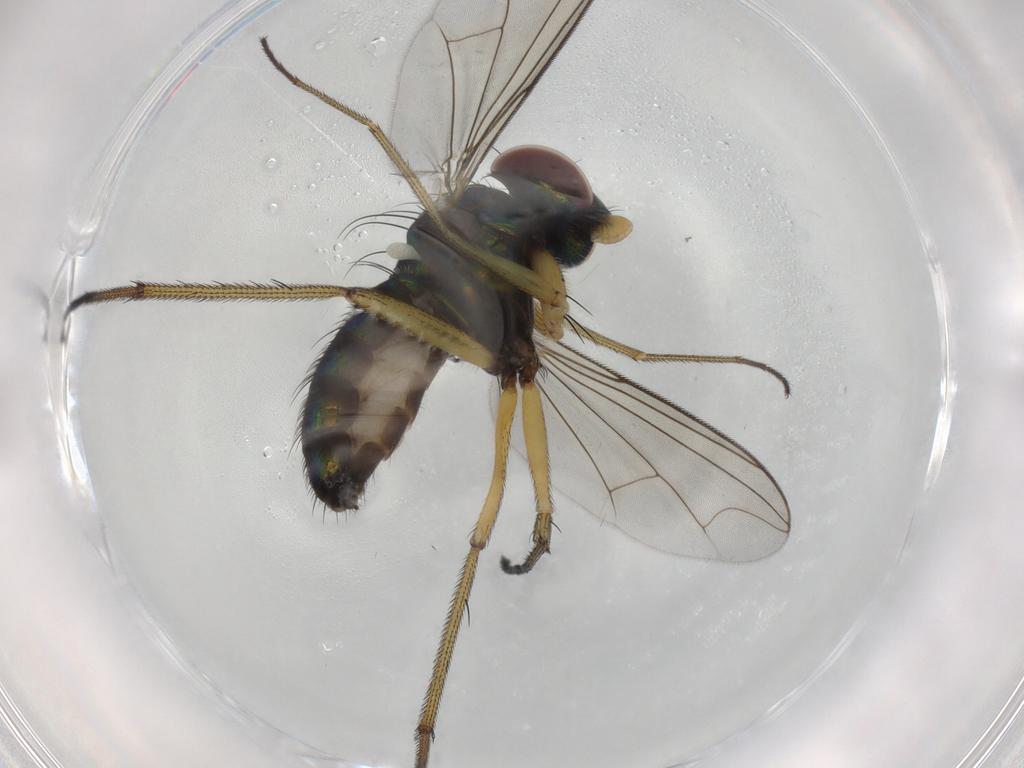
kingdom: Animalia
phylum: Arthropoda
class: Insecta
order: Diptera
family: Dolichopodidae
